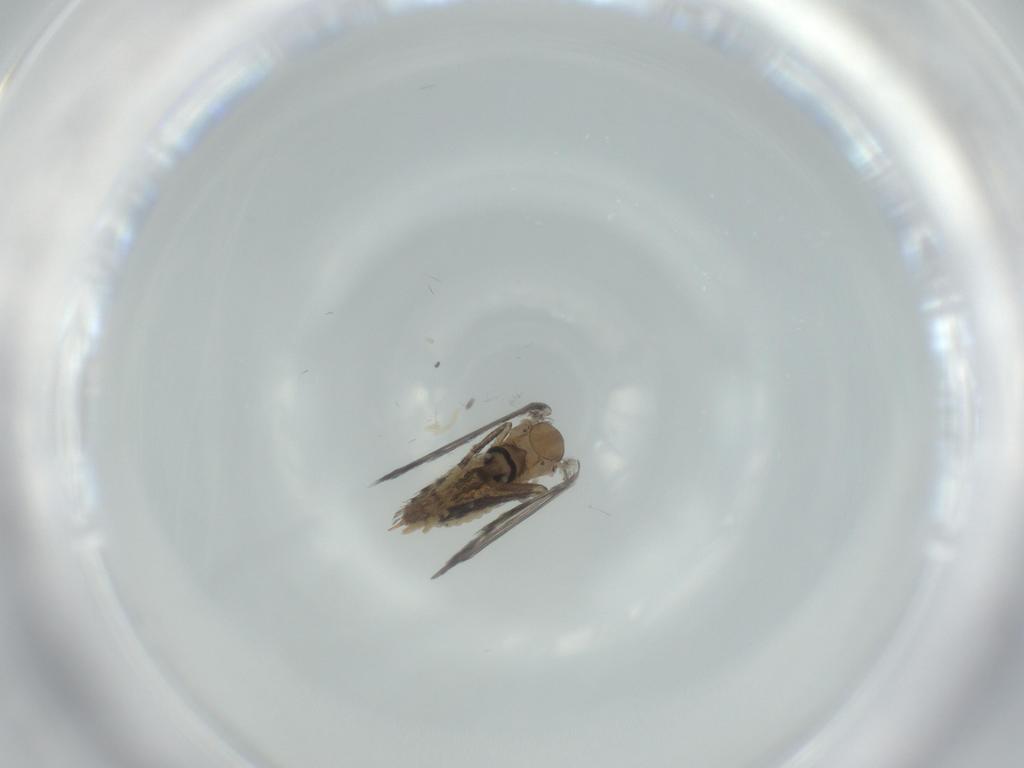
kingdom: Animalia
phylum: Arthropoda
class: Insecta
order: Diptera
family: Psychodidae
